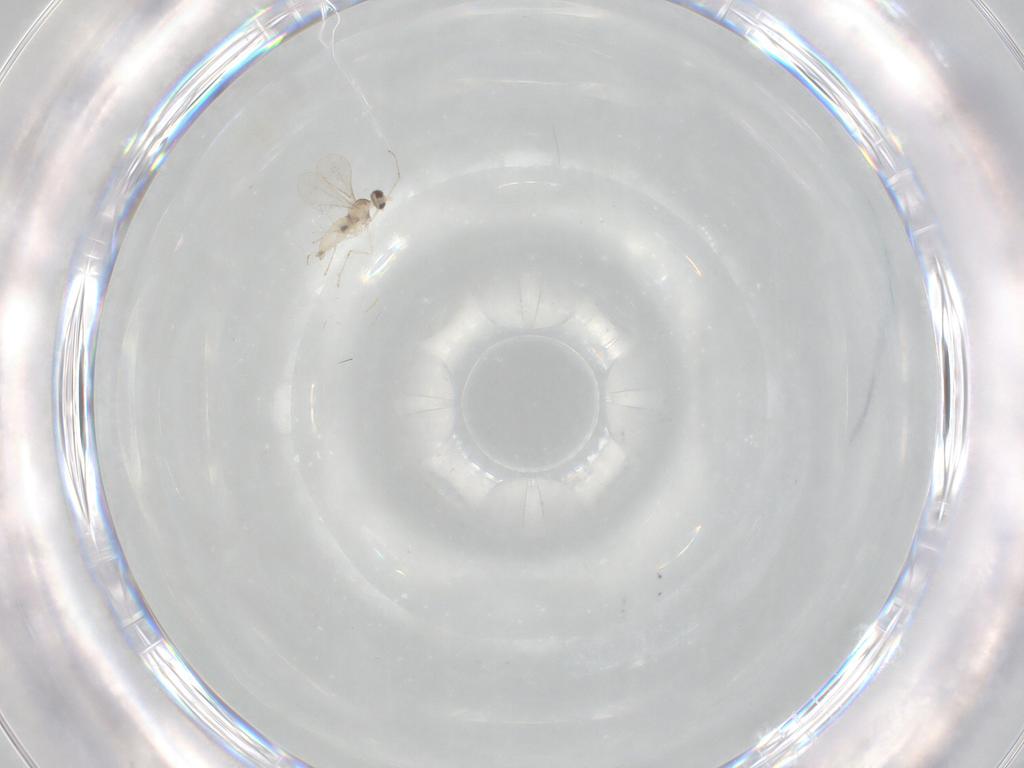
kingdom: Animalia
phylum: Arthropoda
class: Insecta
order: Diptera
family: Cecidomyiidae
